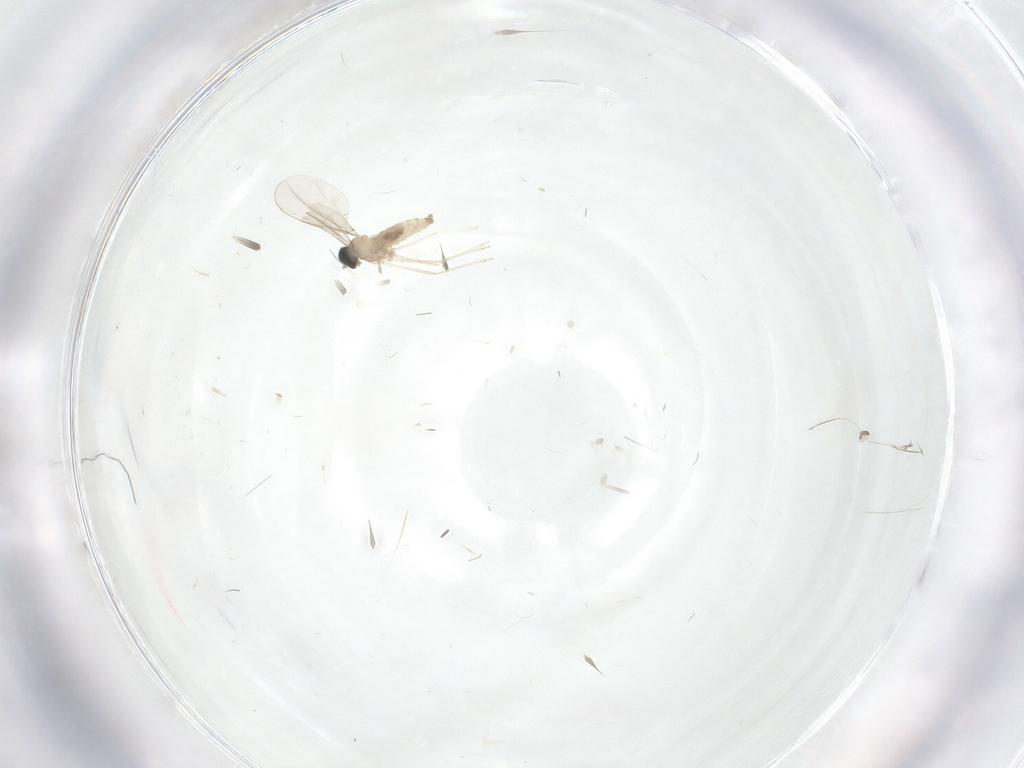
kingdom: Animalia
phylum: Arthropoda
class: Insecta
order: Diptera
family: Cecidomyiidae
